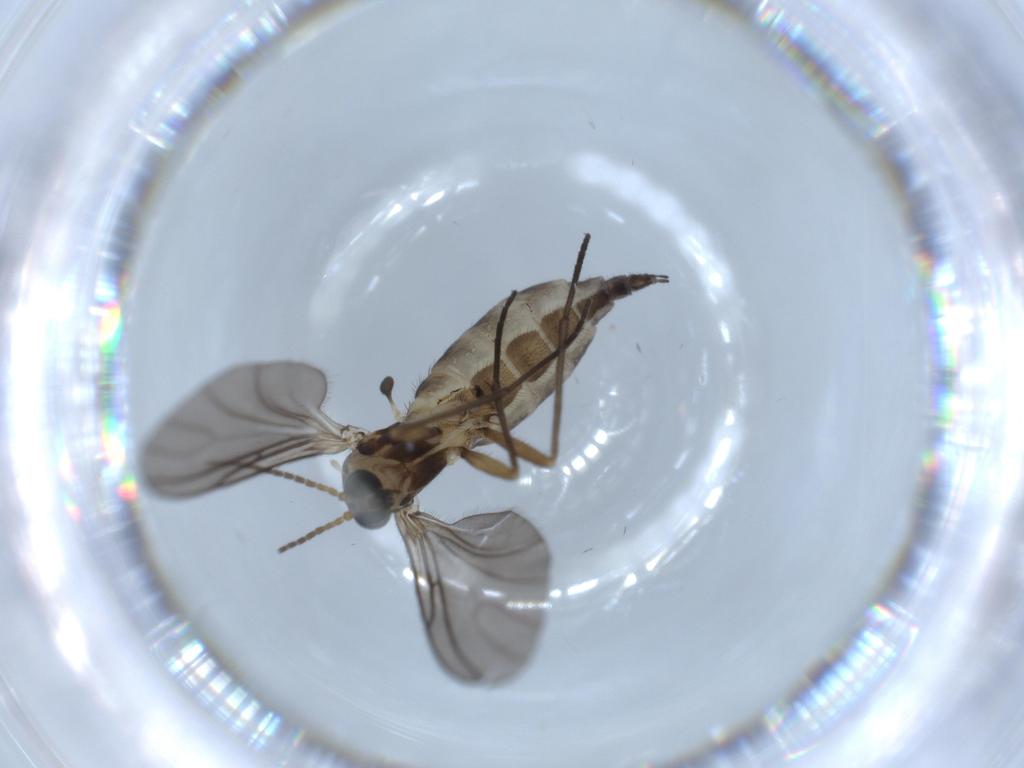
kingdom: Animalia
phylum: Arthropoda
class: Insecta
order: Diptera
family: Sciaridae
